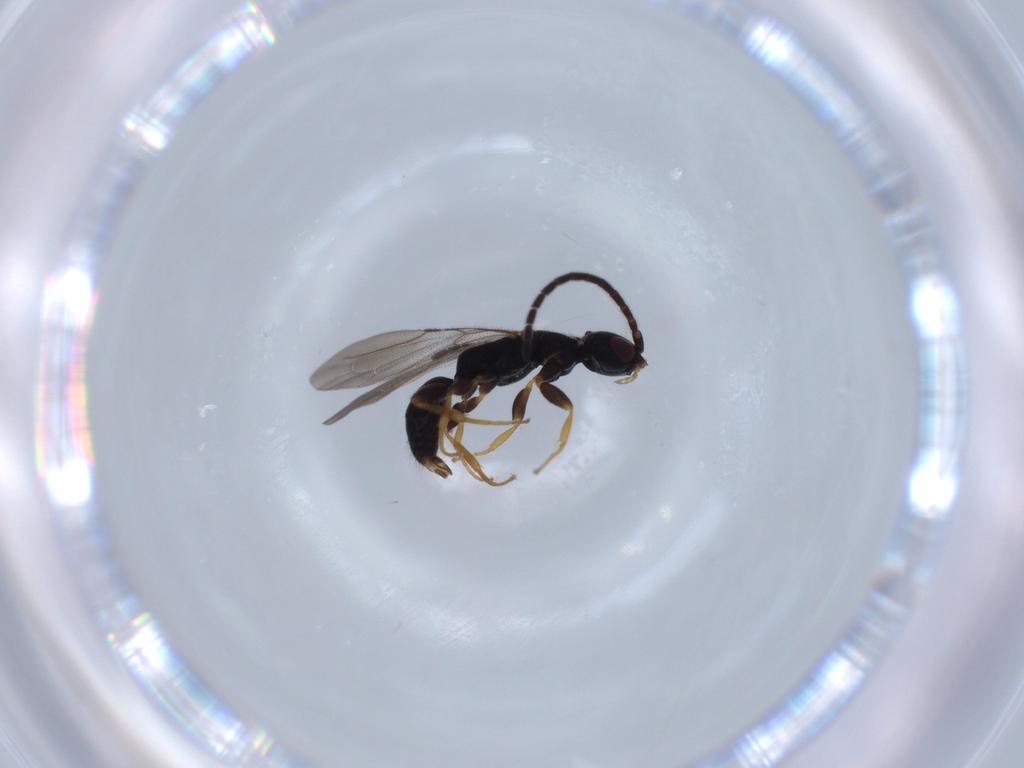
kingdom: Animalia
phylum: Arthropoda
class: Insecta
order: Hymenoptera
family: Bethylidae
